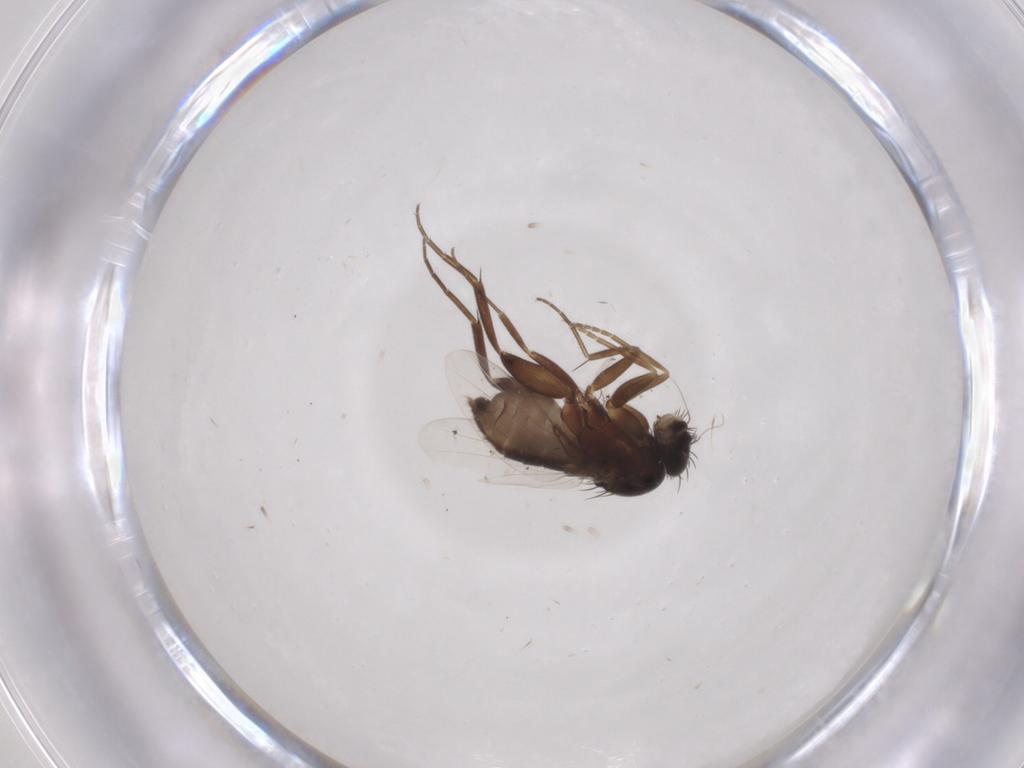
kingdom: Animalia
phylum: Arthropoda
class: Insecta
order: Diptera
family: Phoridae
